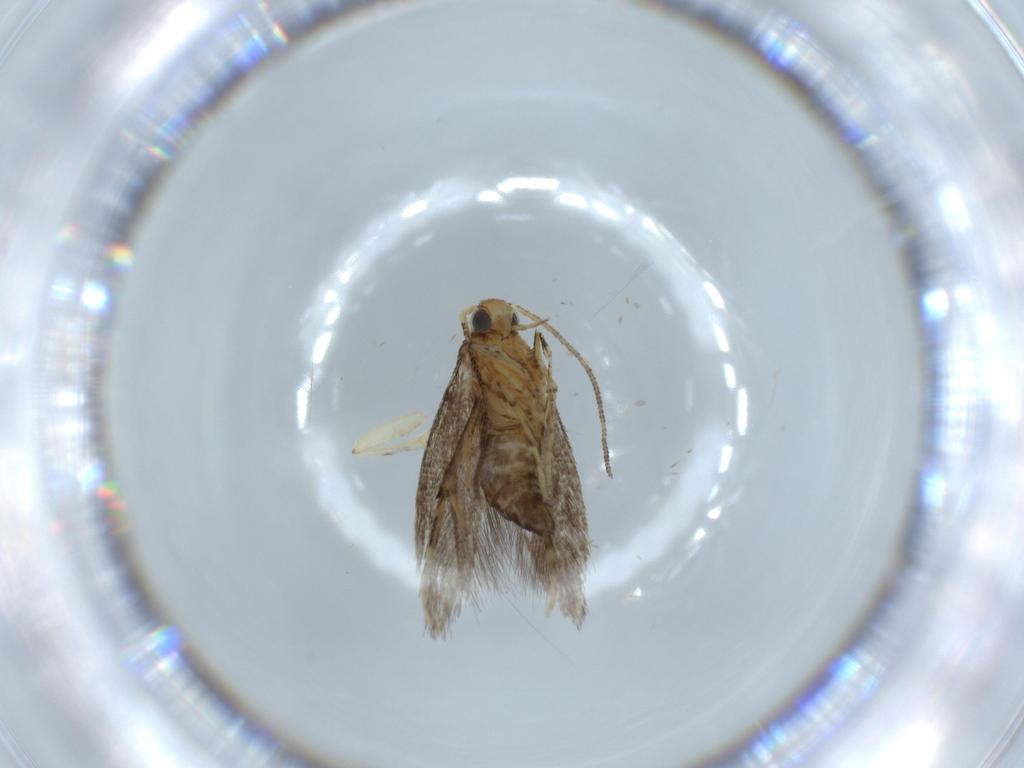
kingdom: Animalia
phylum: Arthropoda
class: Insecta
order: Lepidoptera
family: Argyresthiidae
